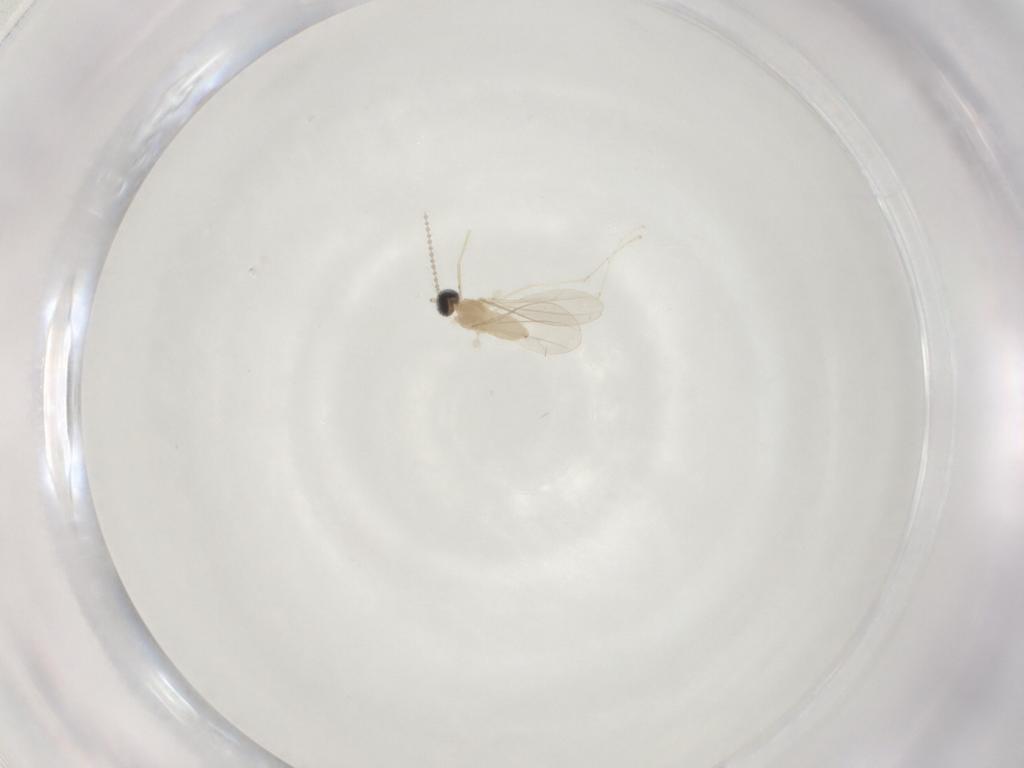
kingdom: Animalia
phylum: Arthropoda
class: Insecta
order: Diptera
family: Cecidomyiidae
